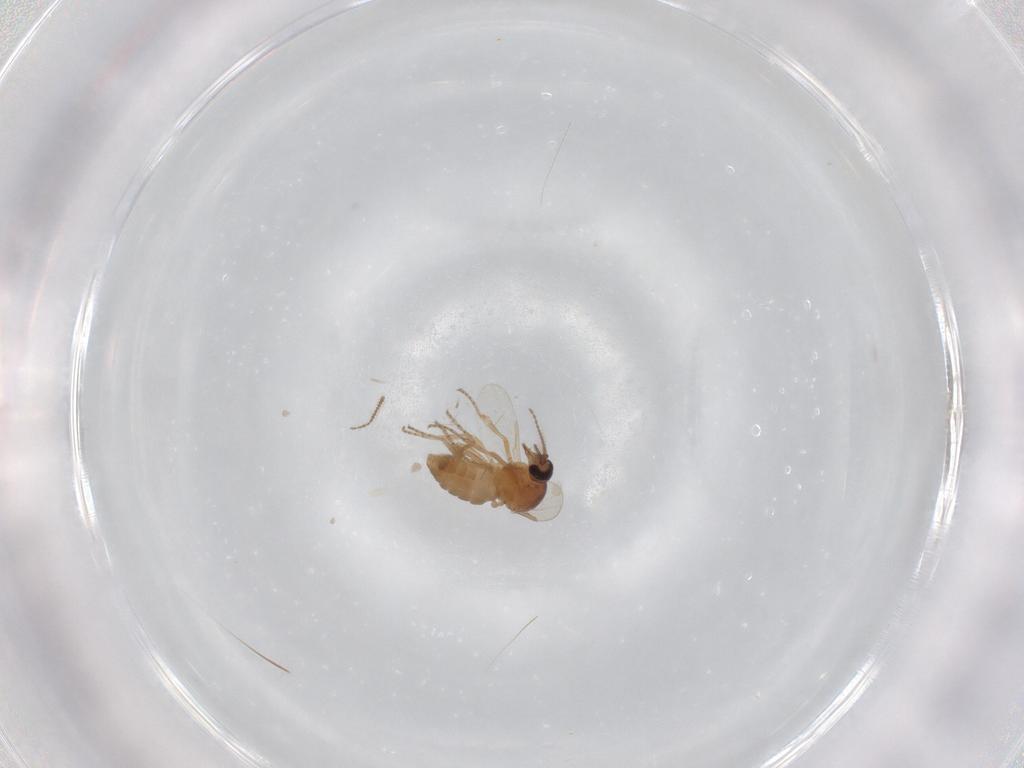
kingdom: Animalia
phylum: Arthropoda
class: Insecta
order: Diptera
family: Ceratopogonidae
